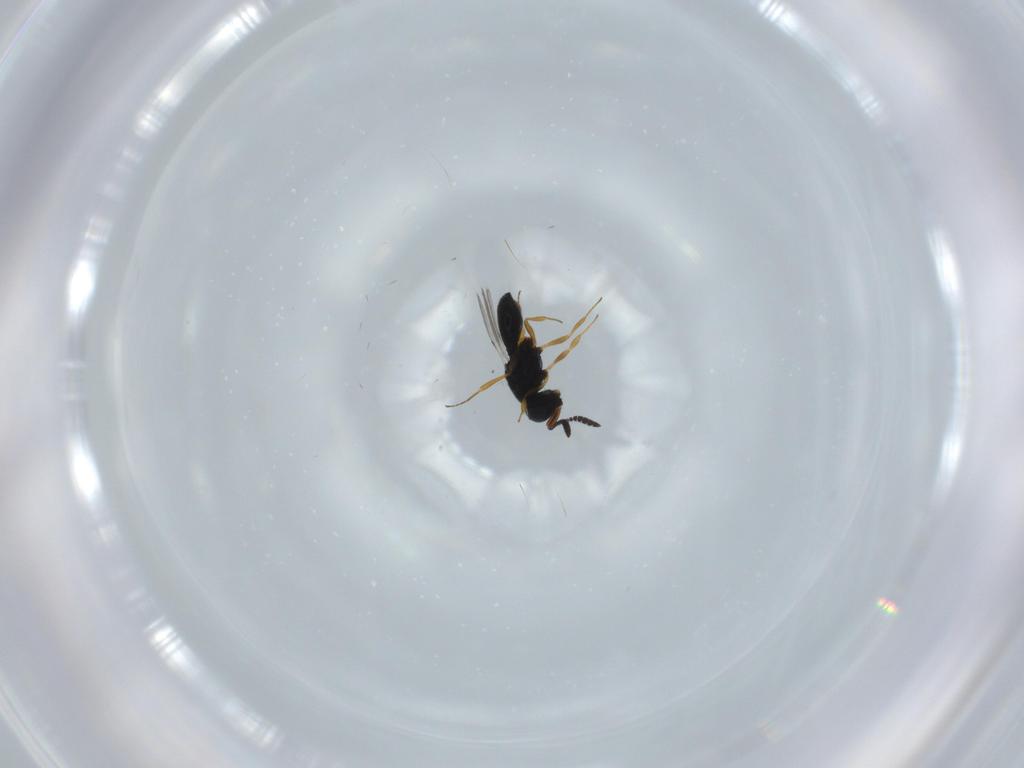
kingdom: Animalia
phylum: Arthropoda
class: Insecta
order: Hymenoptera
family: Scelionidae
